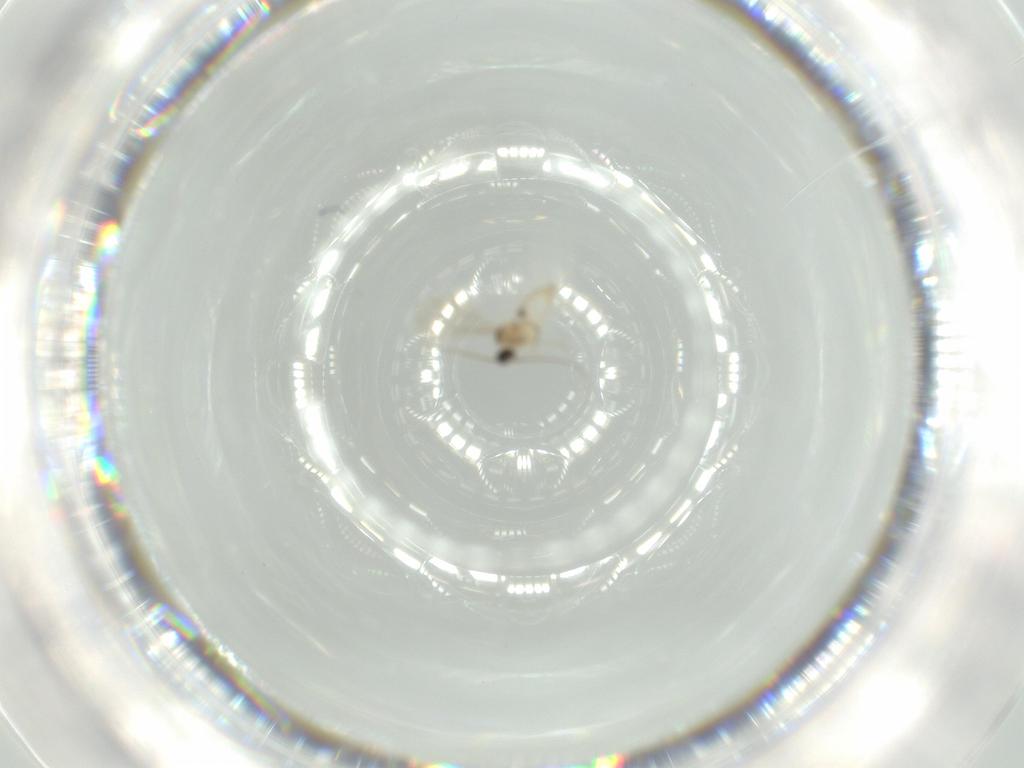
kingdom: Animalia
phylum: Arthropoda
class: Insecta
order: Diptera
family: Cecidomyiidae
